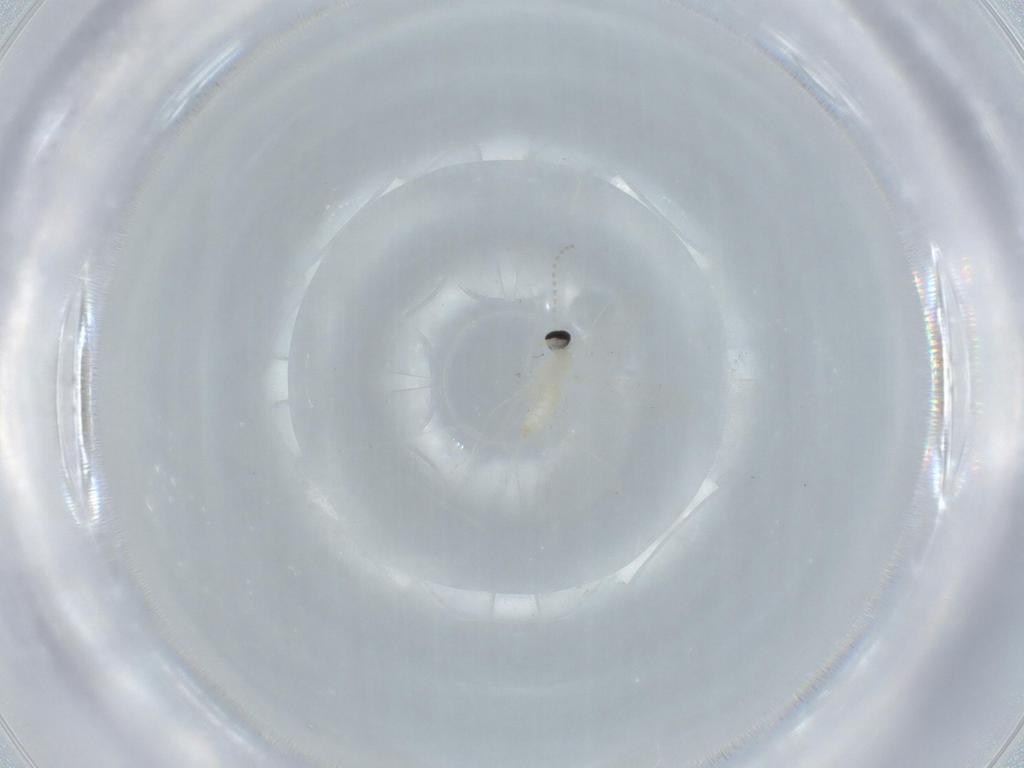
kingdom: Animalia
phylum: Arthropoda
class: Insecta
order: Diptera
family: Cecidomyiidae
